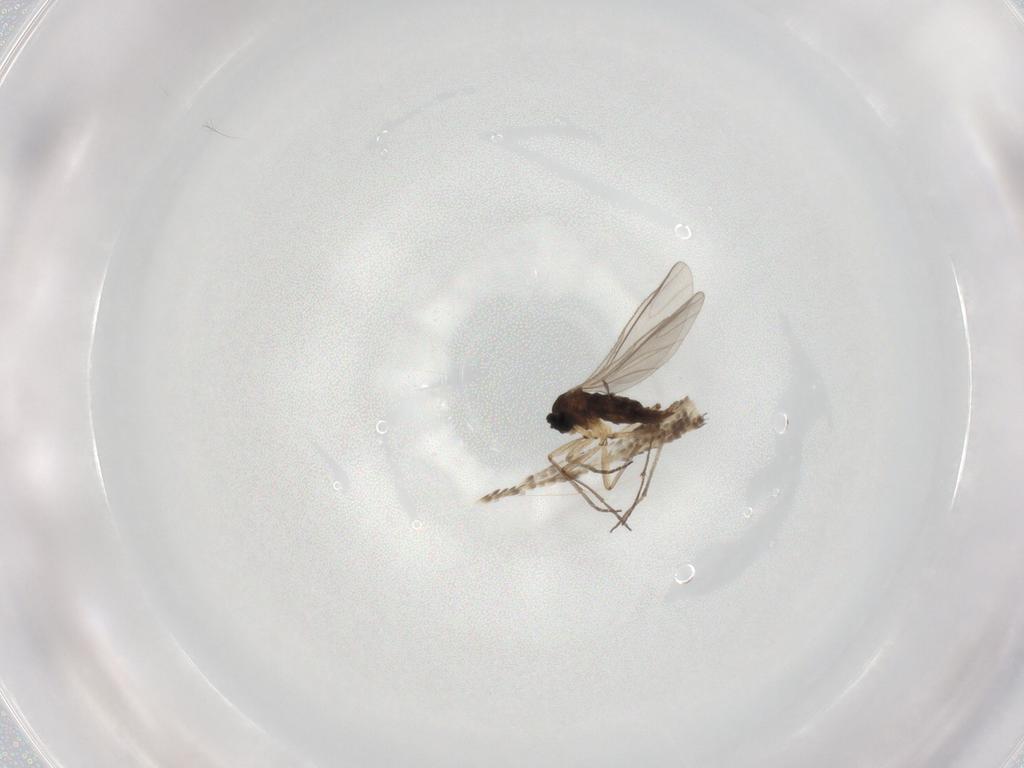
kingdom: Animalia
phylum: Arthropoda
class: Insecta
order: Diptera
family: Sciaridae
